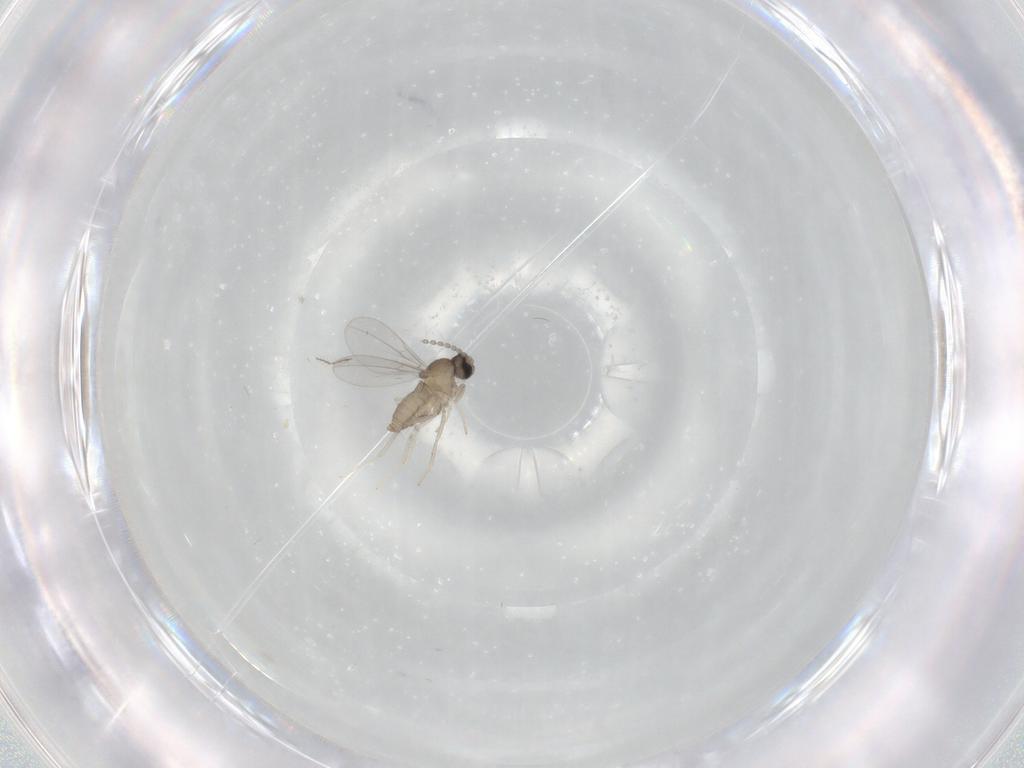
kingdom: Animalia
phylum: Arthropoda
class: Insecta
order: Diptera
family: Cecidomyiidae
